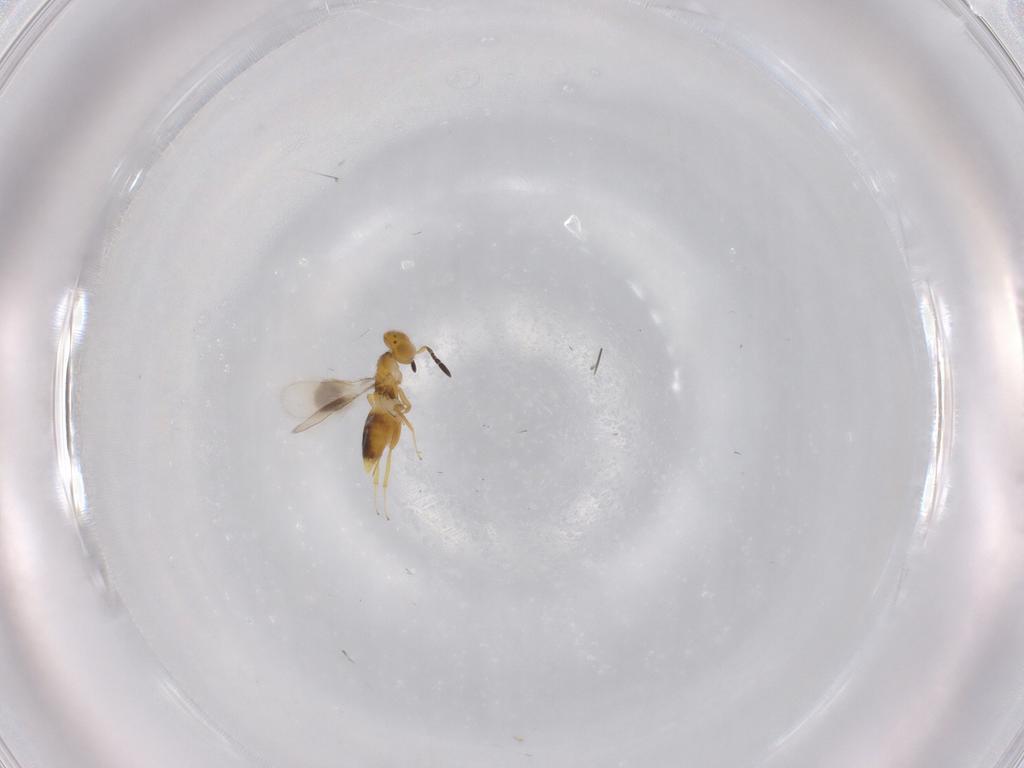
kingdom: Animalia
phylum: Arthropoda
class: Insecta
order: Hymenoptera
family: Encyrtidae
